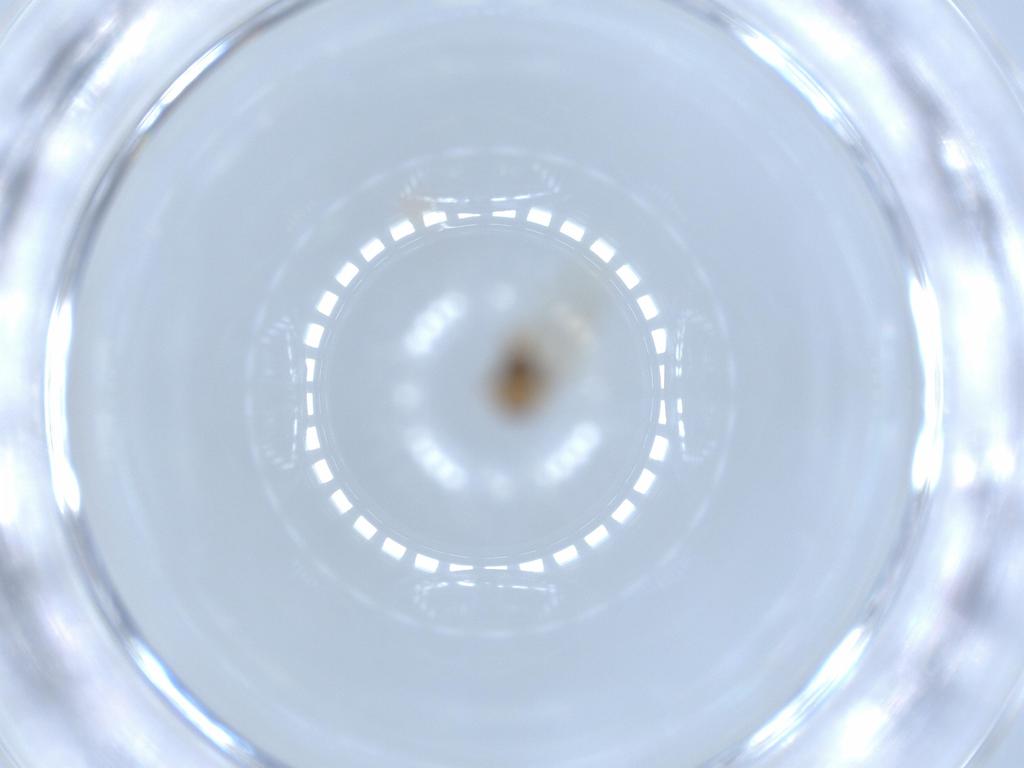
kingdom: Animalia
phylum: Arthropoda
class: Insecta
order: Diptera
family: Cecidomyiidae
